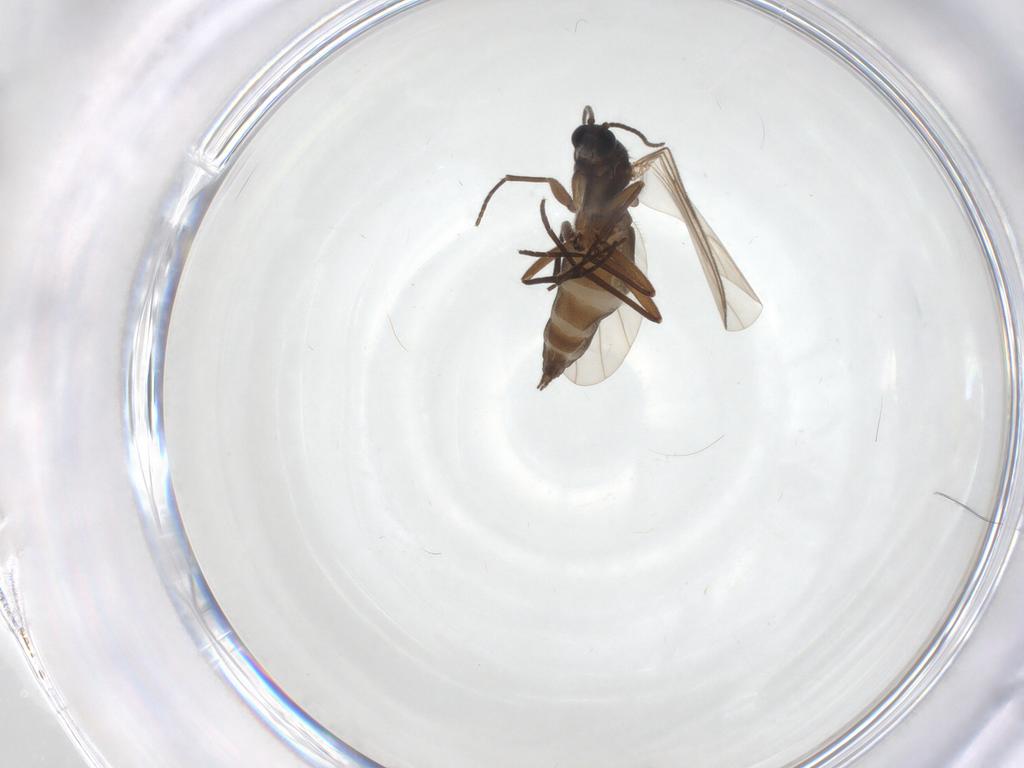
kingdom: Animalia
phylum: Arthropoda
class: Insecta
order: Diptera
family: Sciaridae
